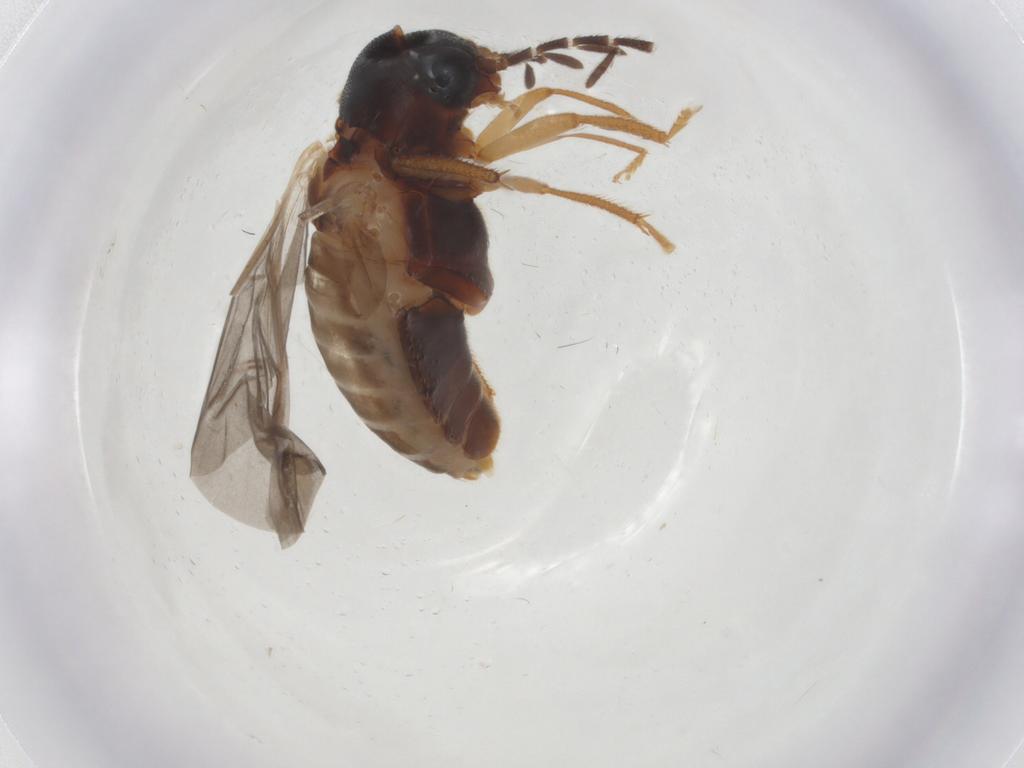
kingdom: Animalia
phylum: Arthropoda
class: Insecta
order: Coleoptera
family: Ptilodactylidae
